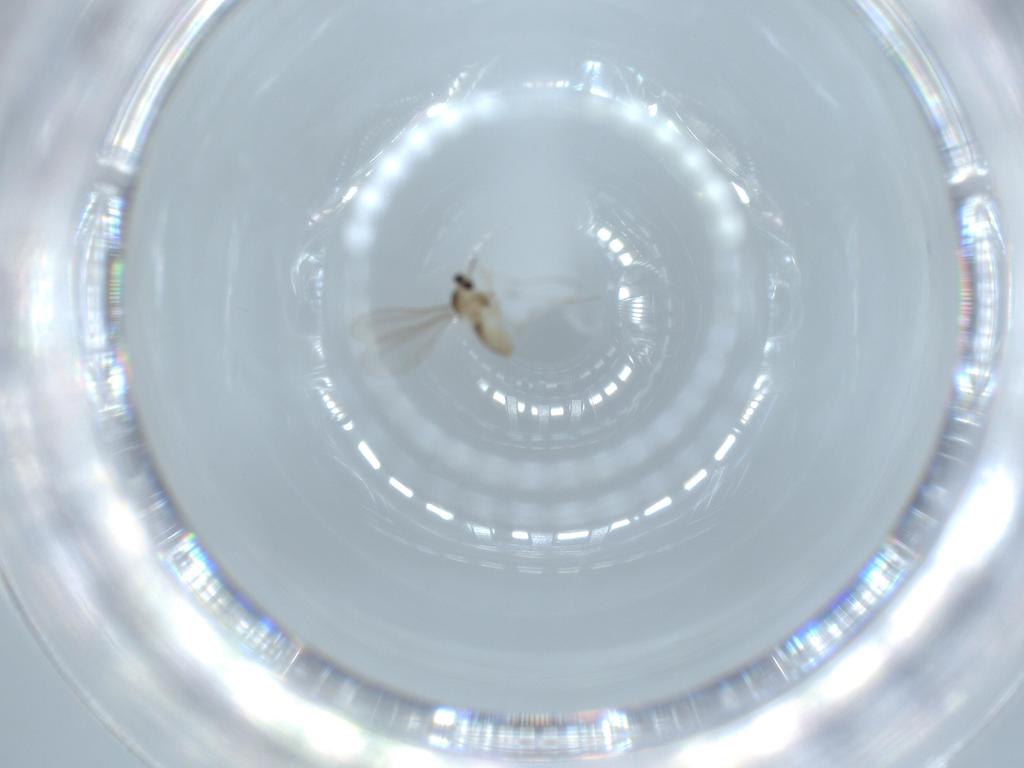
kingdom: Animalia
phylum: Arthropoda
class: Insecta
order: Diptera
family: Cecidomyiidae
